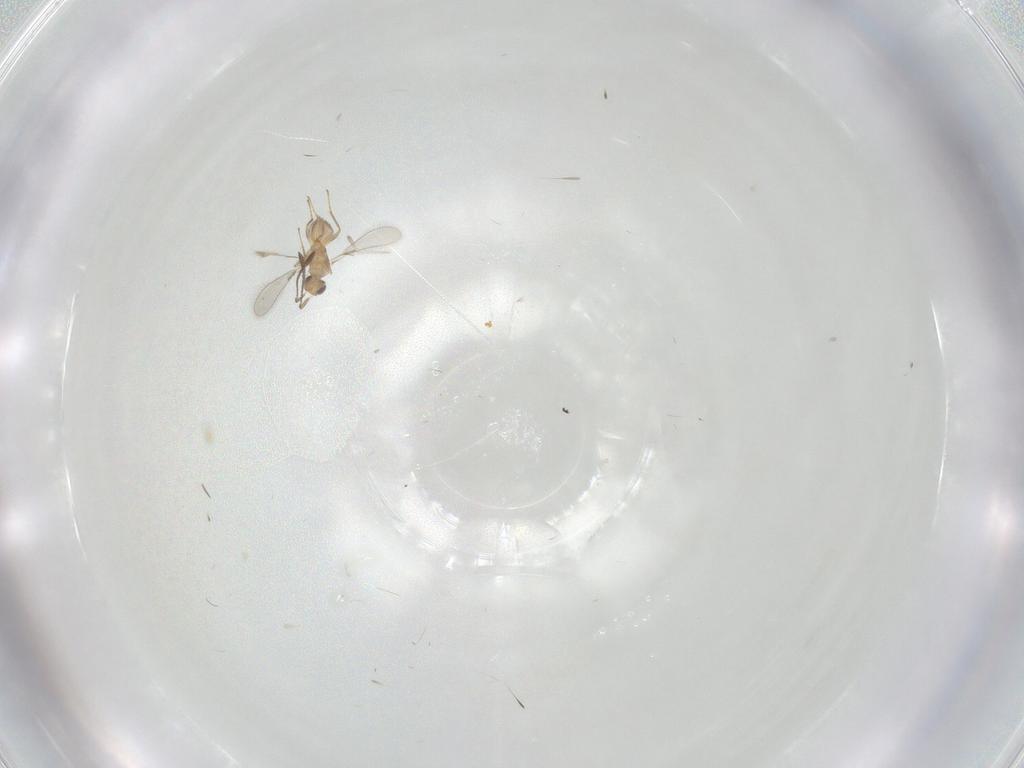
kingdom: Animalia
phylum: Arthropoda
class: Insecta
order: Hymenoptera
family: Mymaridae
